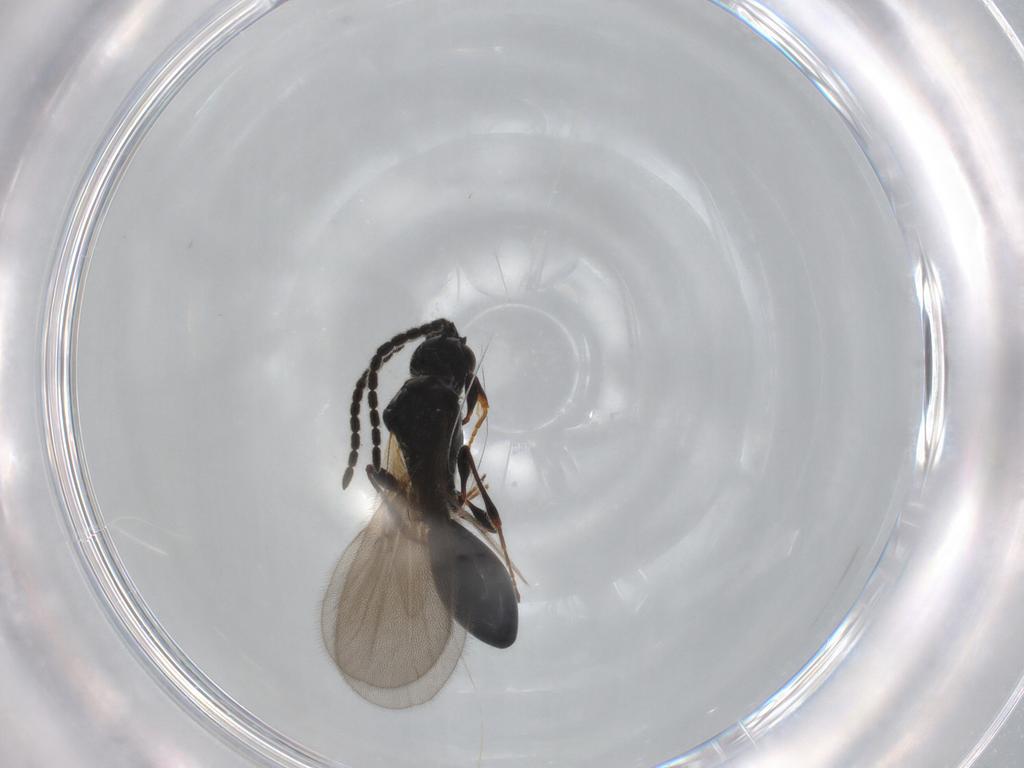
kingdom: Animalia
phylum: Arthropoda
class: Insecta
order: Hymenoptera
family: Diapriidae
